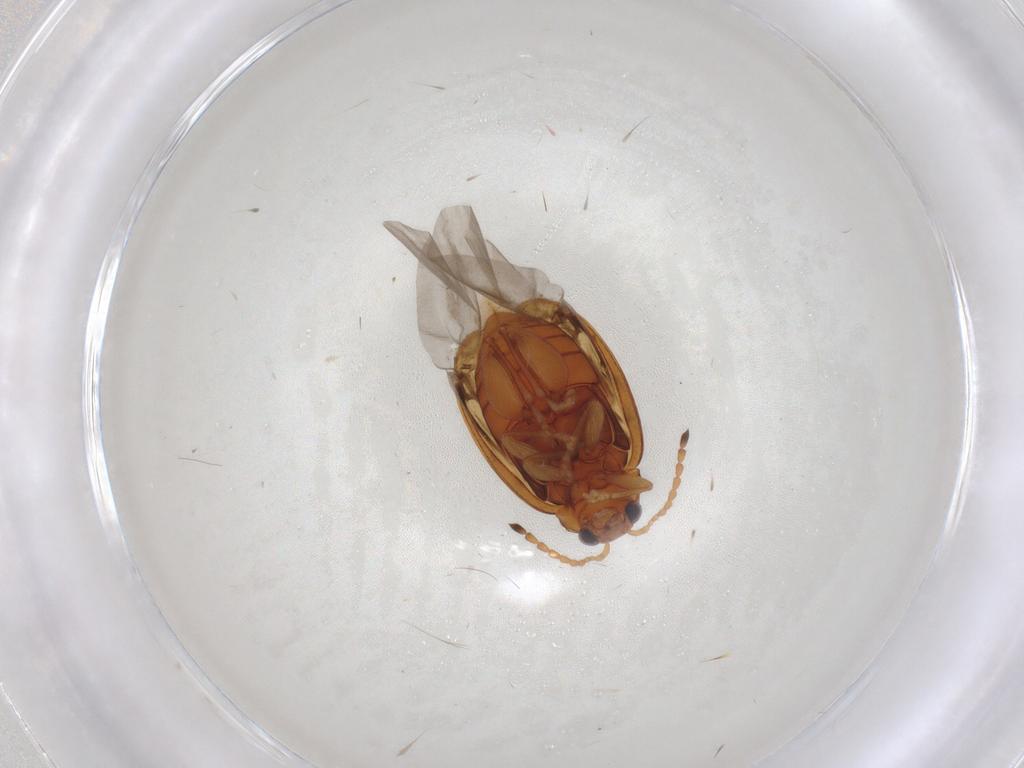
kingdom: Animalia
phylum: Arthropoda
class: Insecta
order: Coleoptera
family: Chrysomelidae
